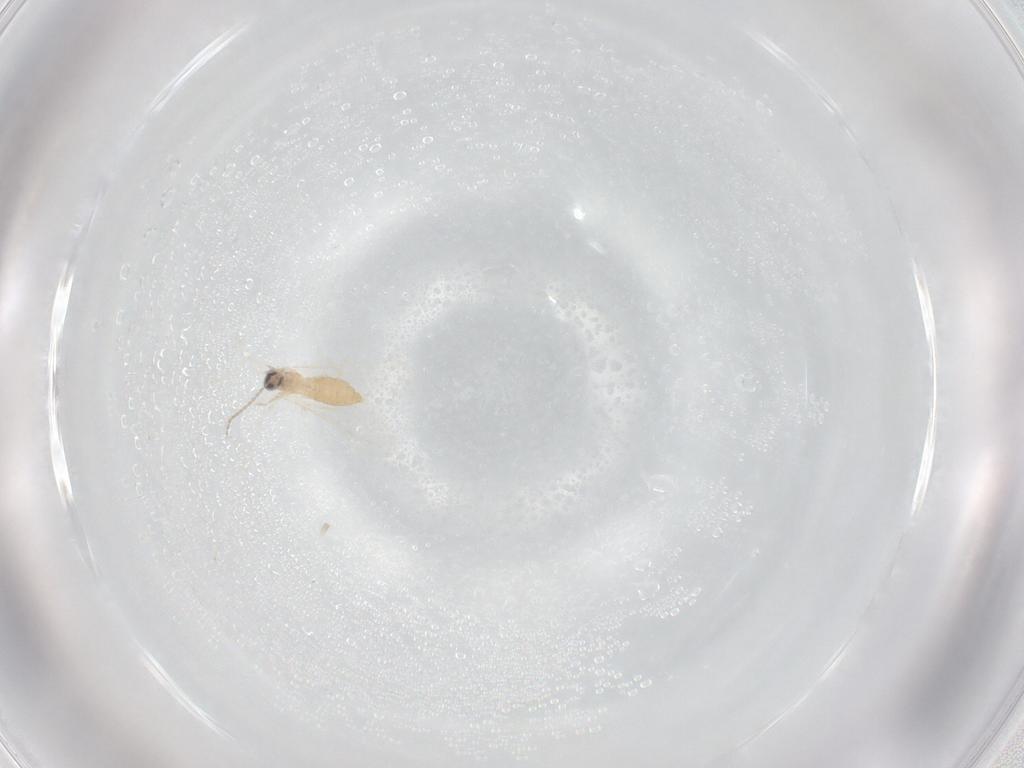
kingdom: Animalia
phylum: Arthropoda
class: Insecta
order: Diptera
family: Cecidomyiidae
